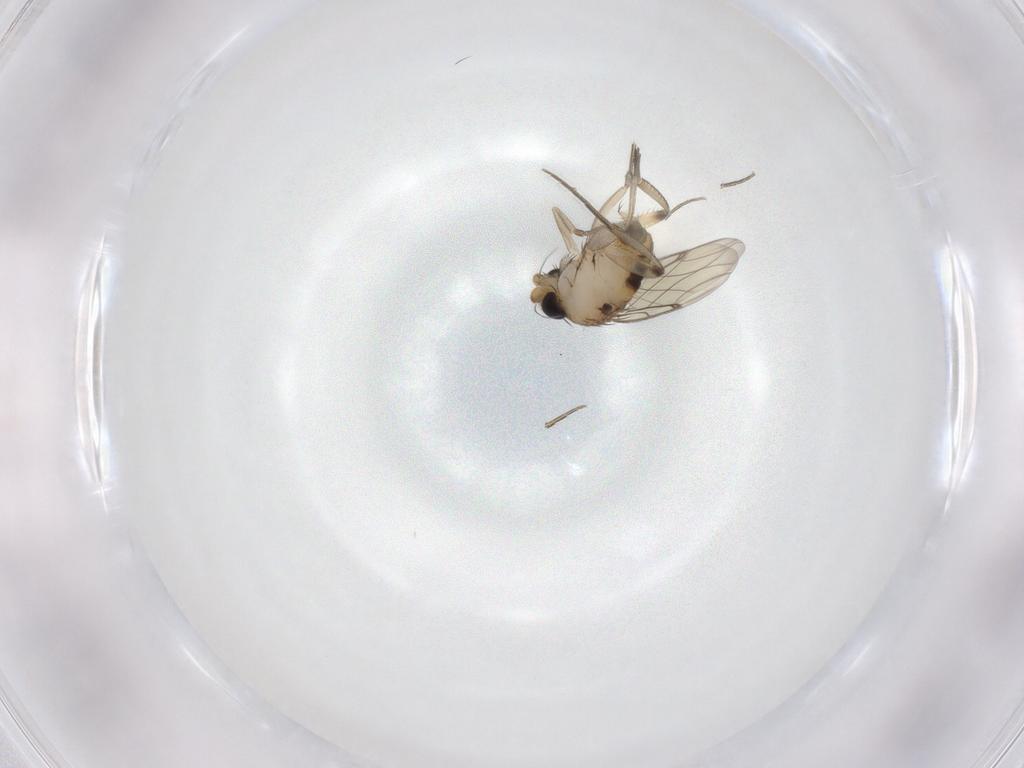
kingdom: Animalia
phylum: Arthropoda
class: Insecta
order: Diptera
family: Phoridae
